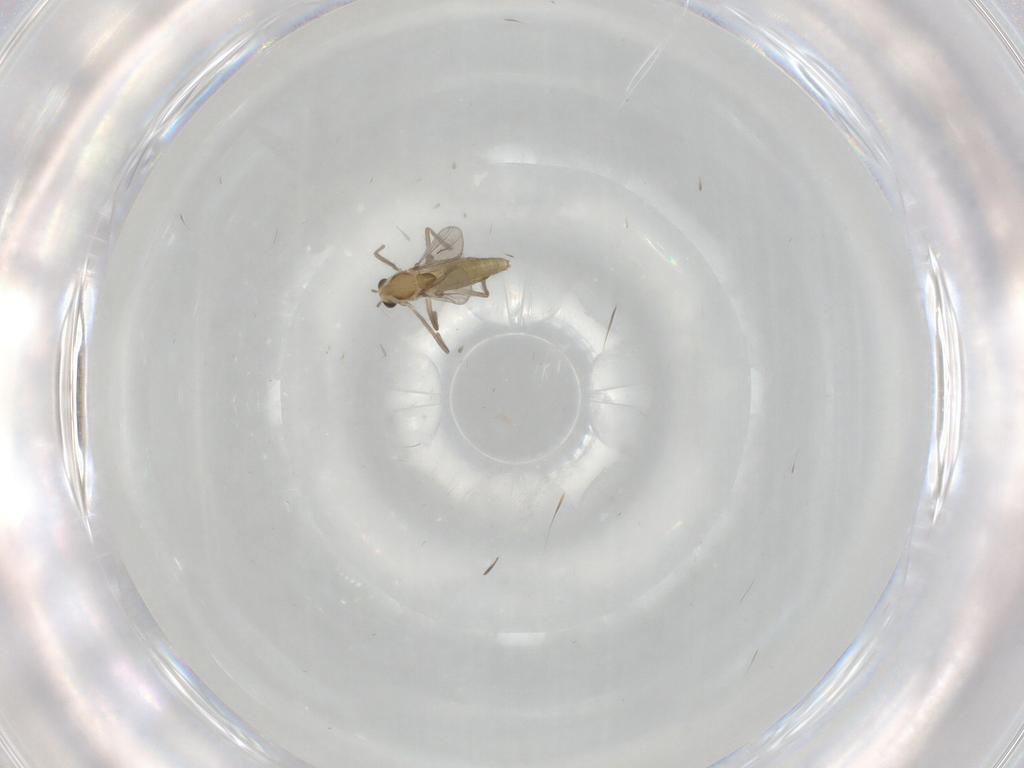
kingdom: Animalia
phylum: Arthropoda
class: Insecta
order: Diptera
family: Chironomidae
